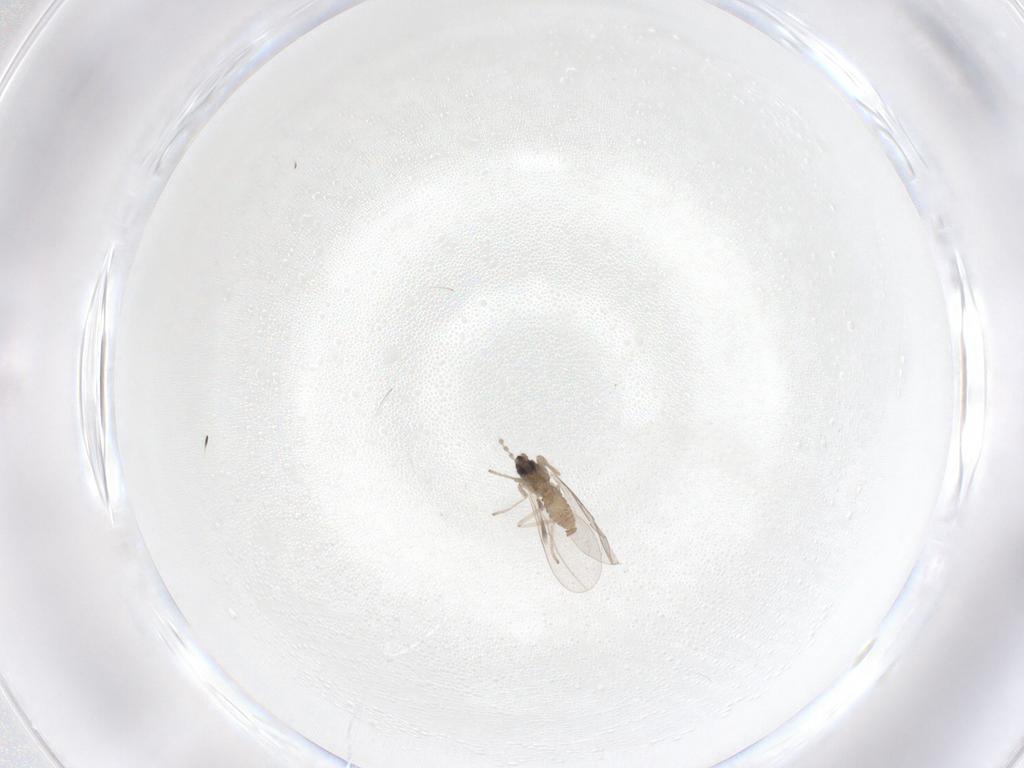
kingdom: Animalia
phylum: Arthropoda
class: Insecta
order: Diptera
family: Cecidomyiidae
